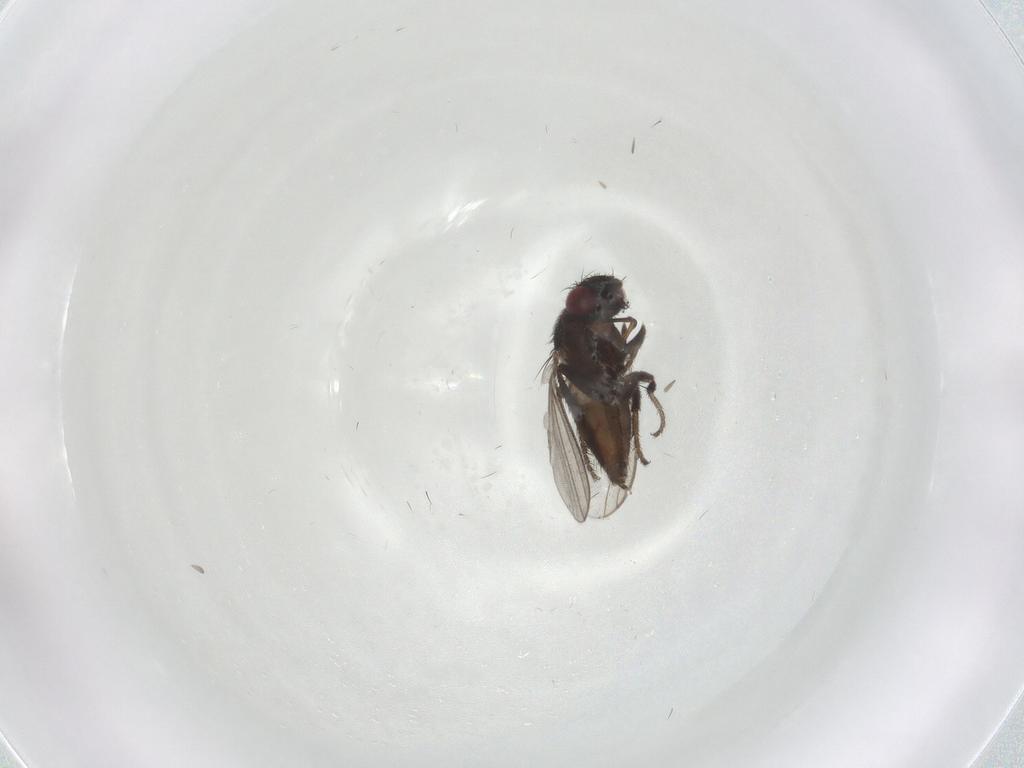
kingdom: Animalia
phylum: Arthropoda
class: Insecta
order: Diptera
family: Milichiidae
